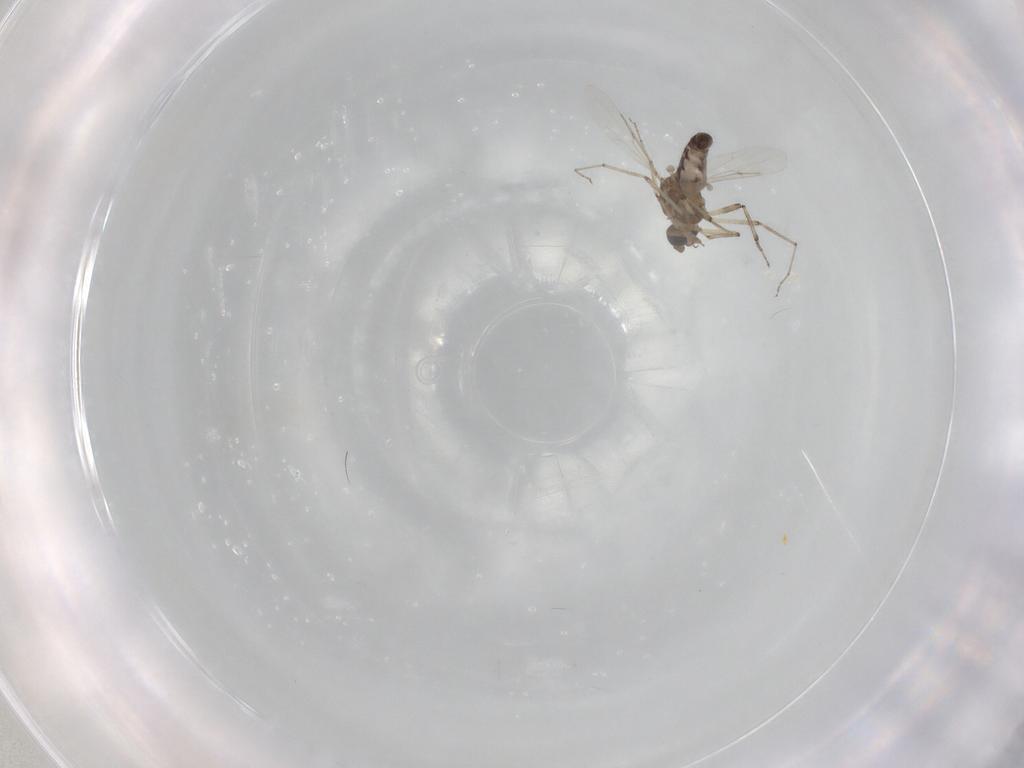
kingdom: Animalia
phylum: Arthropoda
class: Insecta
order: Diptera
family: Ceratopogonidae
